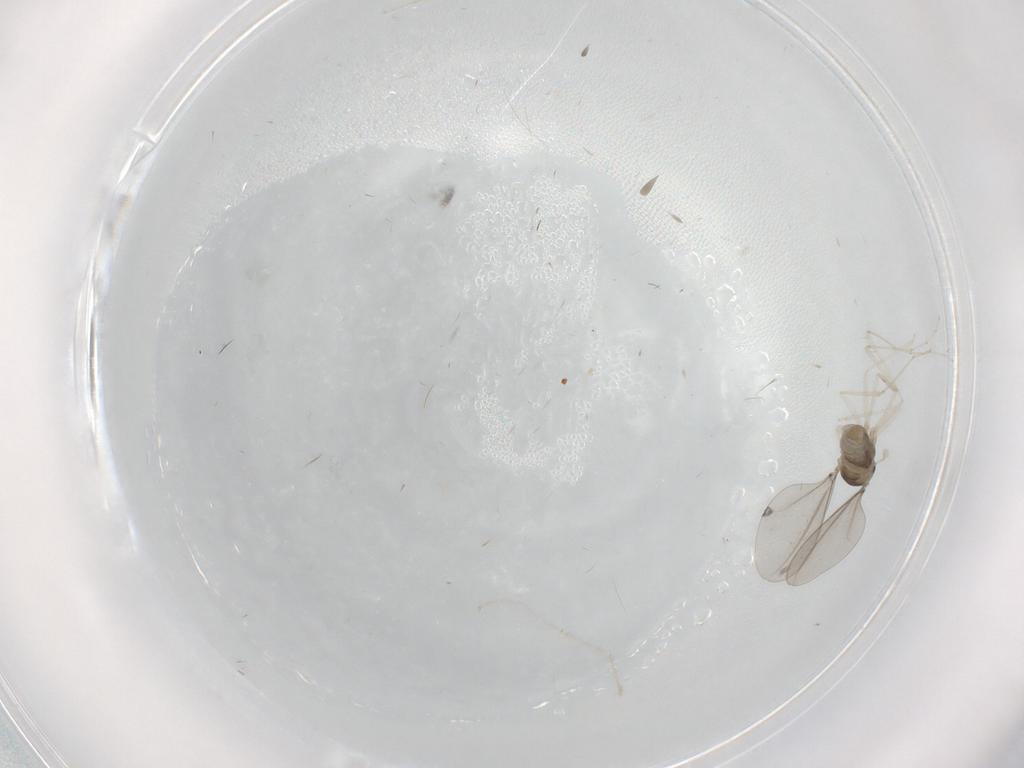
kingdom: Animalia
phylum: Arthropoda
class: Insecta
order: Diptera
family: Cecidomyiidae
